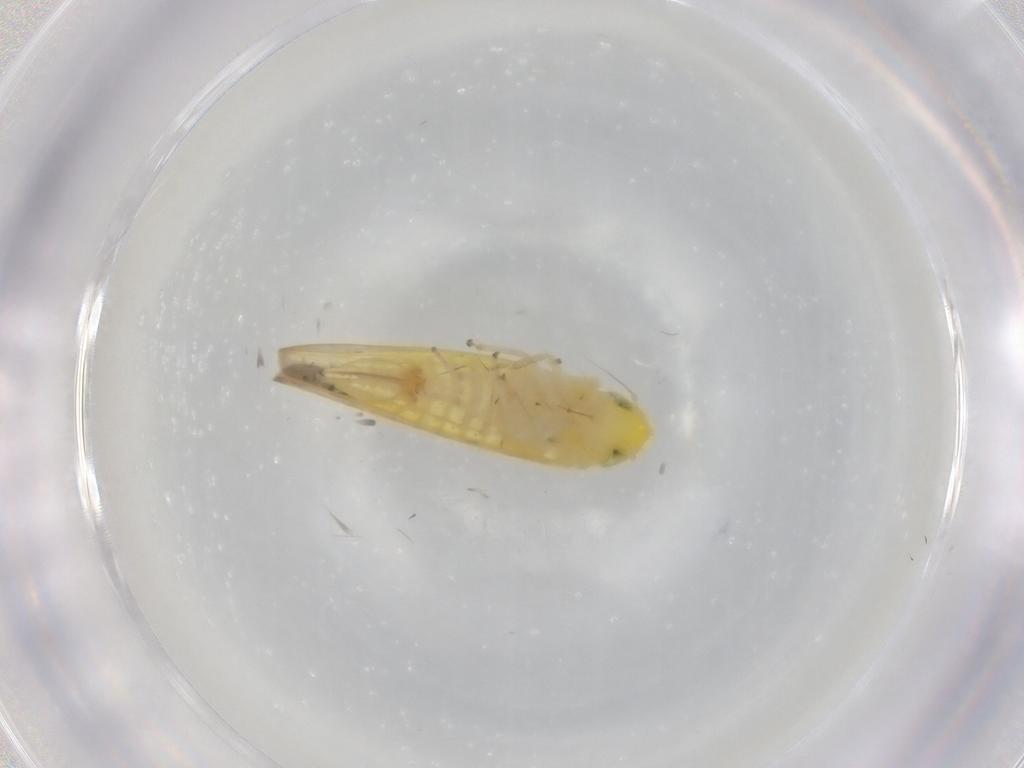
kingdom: Animalia
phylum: Arthropoda
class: Insecta
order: Hemiptera
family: Cicadellidae
